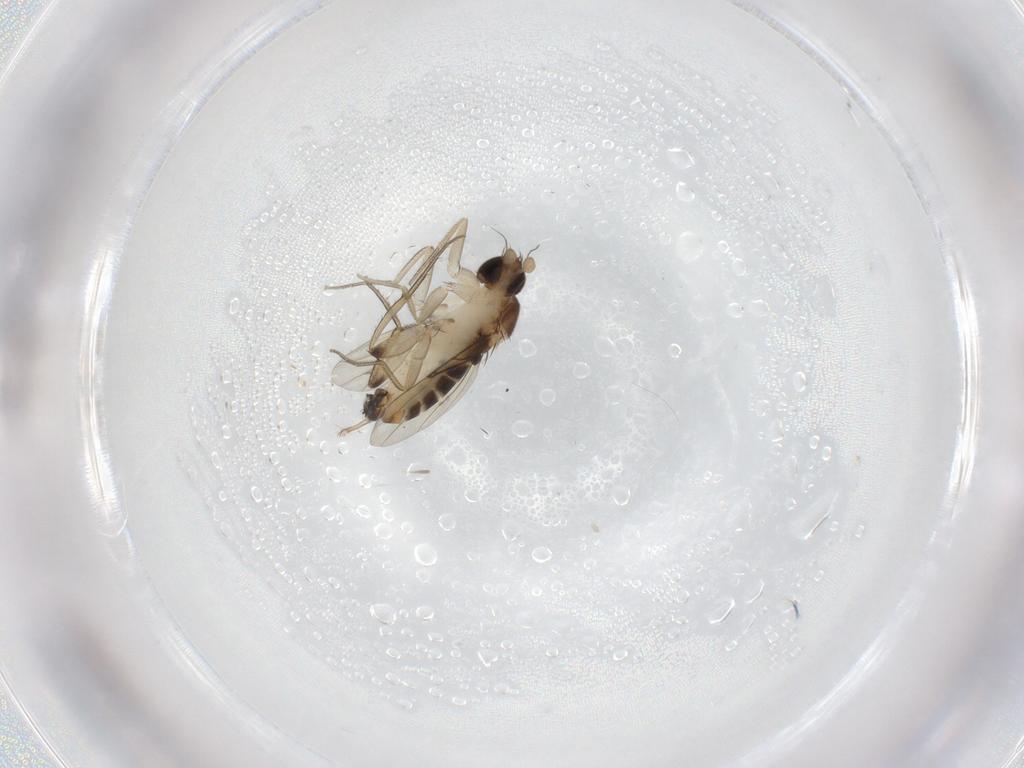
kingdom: Animalia
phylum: Arthropoda
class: Insecta
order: Diptera
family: Phoridae
